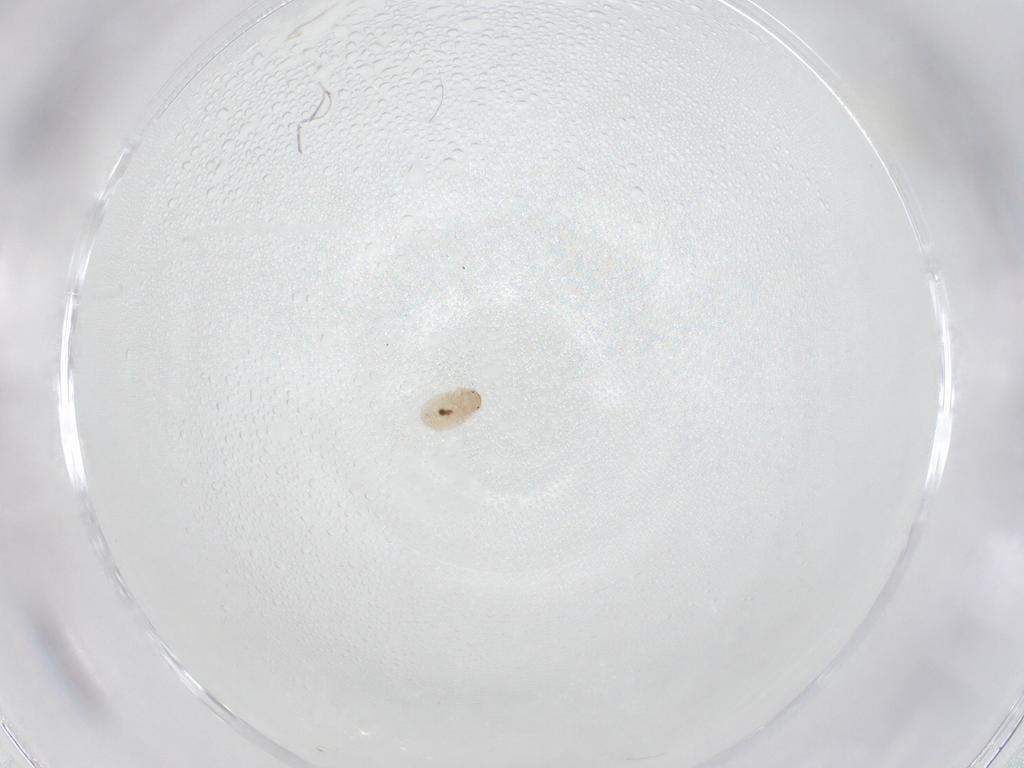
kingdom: Animalia
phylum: Arthropoda
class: Insecta
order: Coleoptera
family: Corylophidae
